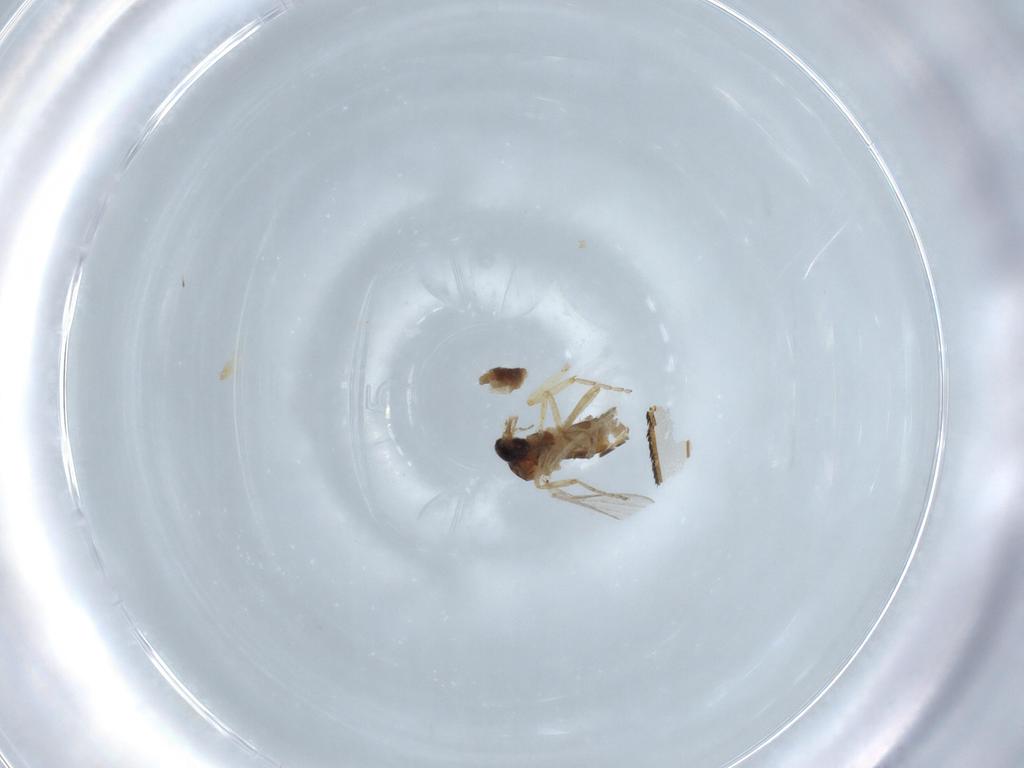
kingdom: Animalia
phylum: Arthropoda
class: Insecta
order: Diptera
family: Ceratopogonidae
